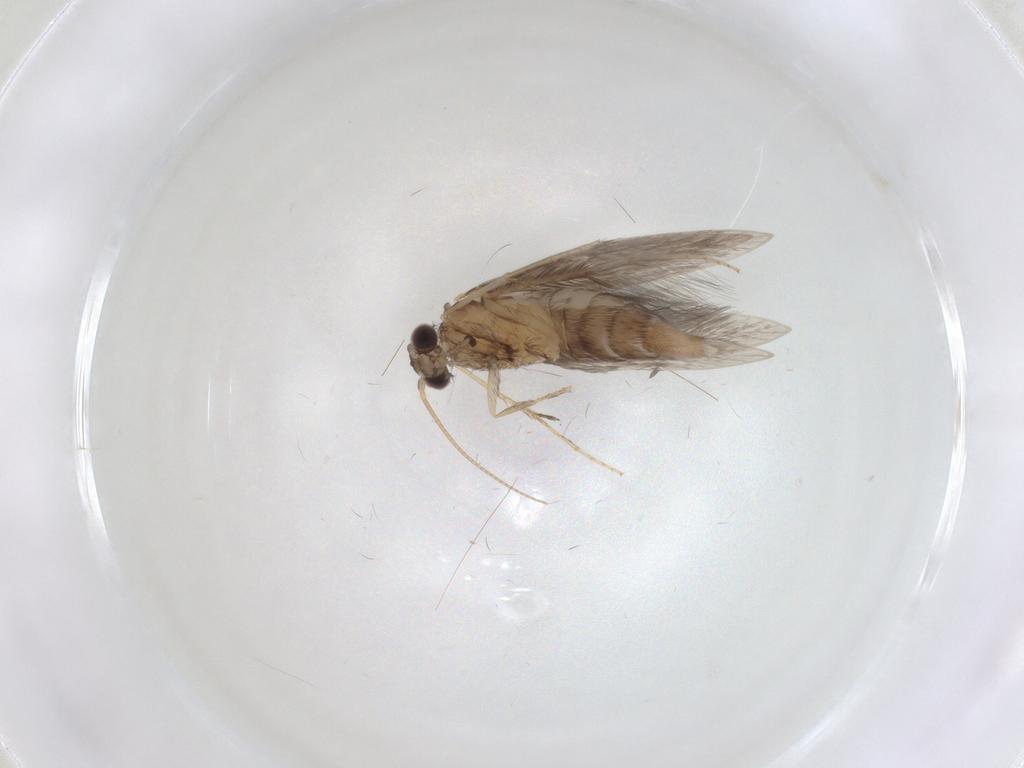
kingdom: Animalia
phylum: Arthropoda
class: Insecta
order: Trichoptera
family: Hydroptilidae
